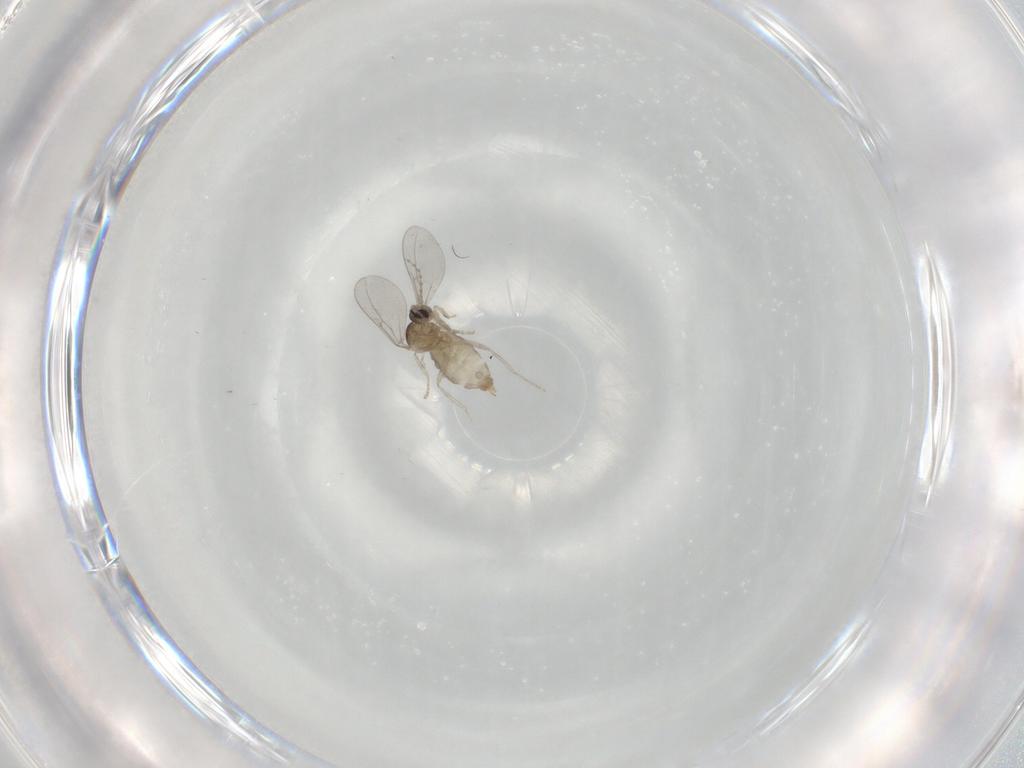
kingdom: Animalia
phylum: Arthropoda
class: Insecta
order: Diptera
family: Cecidomyiidae
